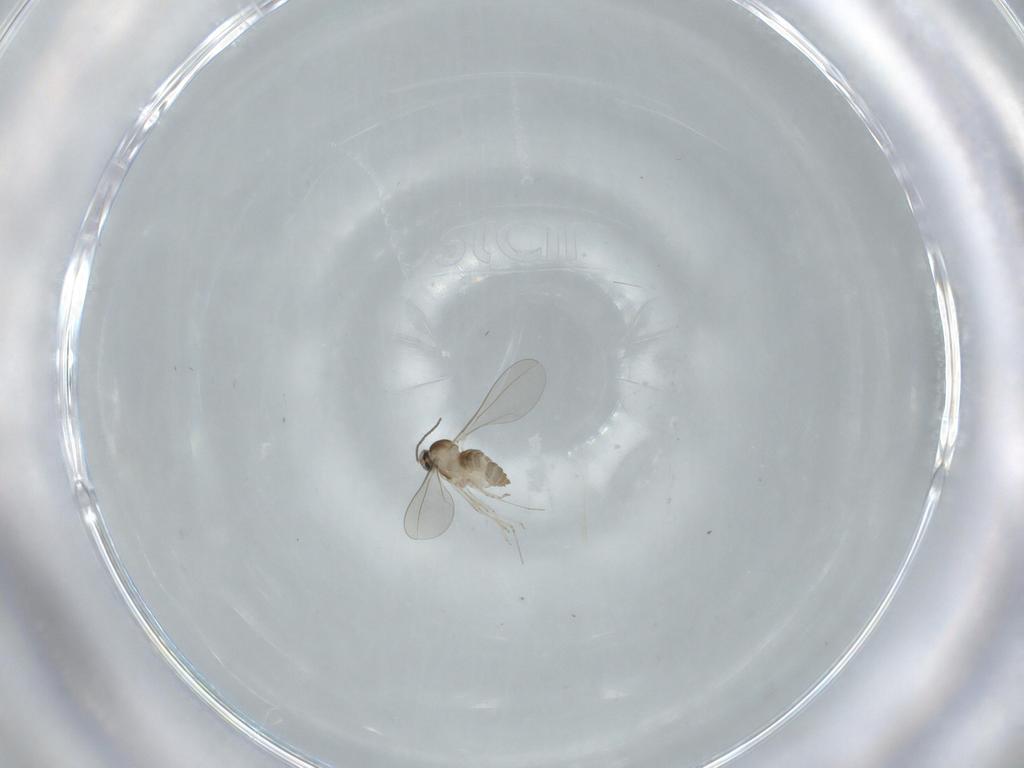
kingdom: Animalia
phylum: Arthropoda
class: Insecta
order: Diptera
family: Cecidomyiidae
